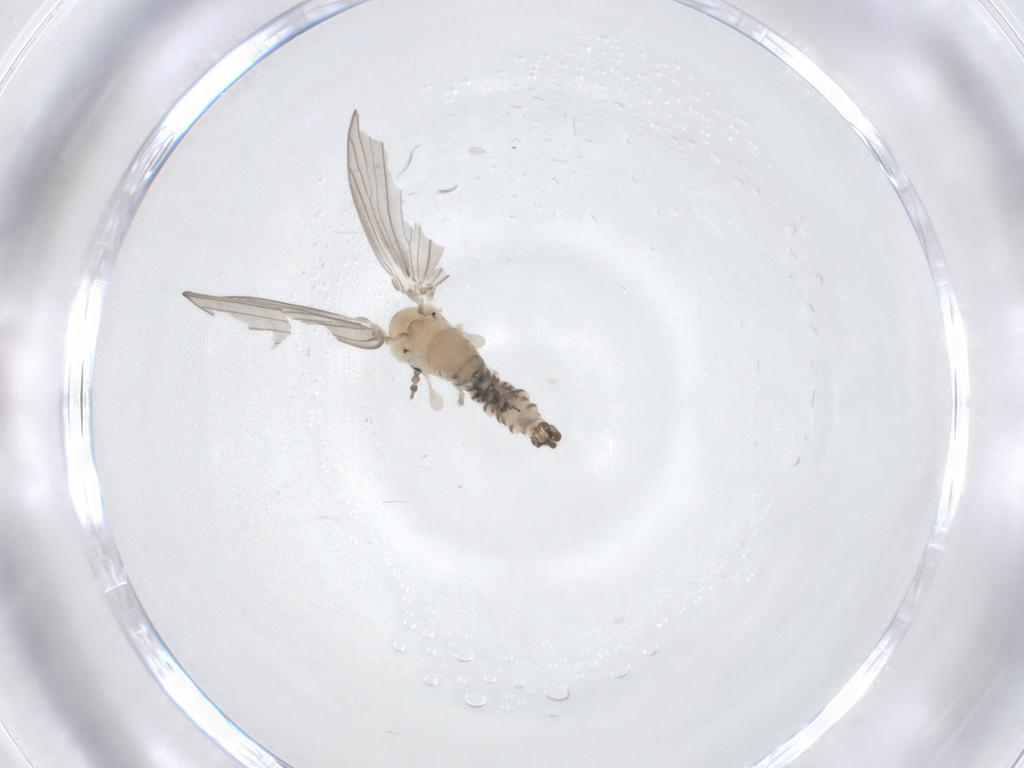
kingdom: Animalia
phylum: Arthropoda
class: Insecta
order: Diptera
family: Psychodidae
